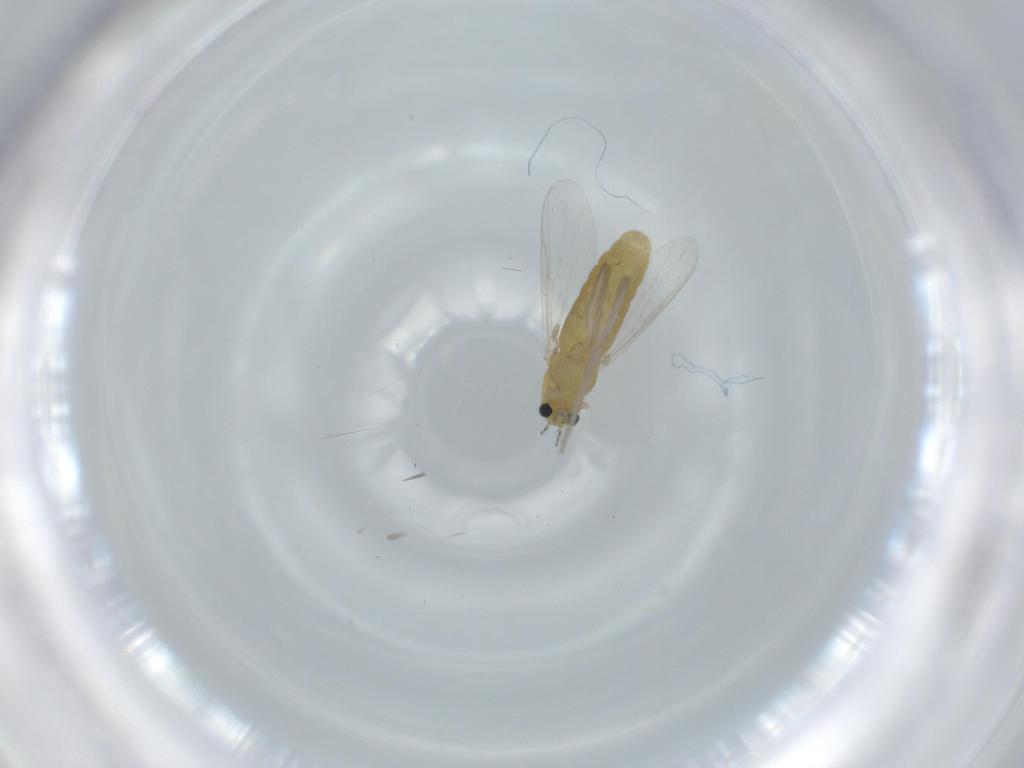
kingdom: Animalia
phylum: Arthropoda
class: Insecta
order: Diptera
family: Chironomidae
